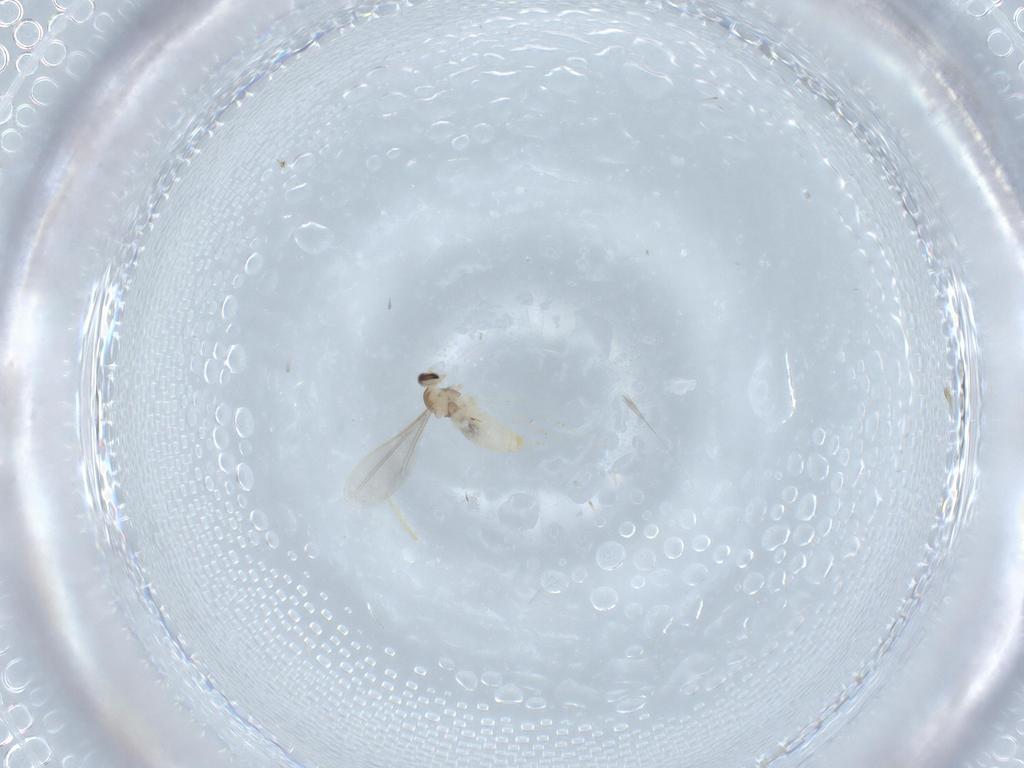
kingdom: Animalia
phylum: Arthropoda
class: Insecta
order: Diptera
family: Cecidomyiidae
